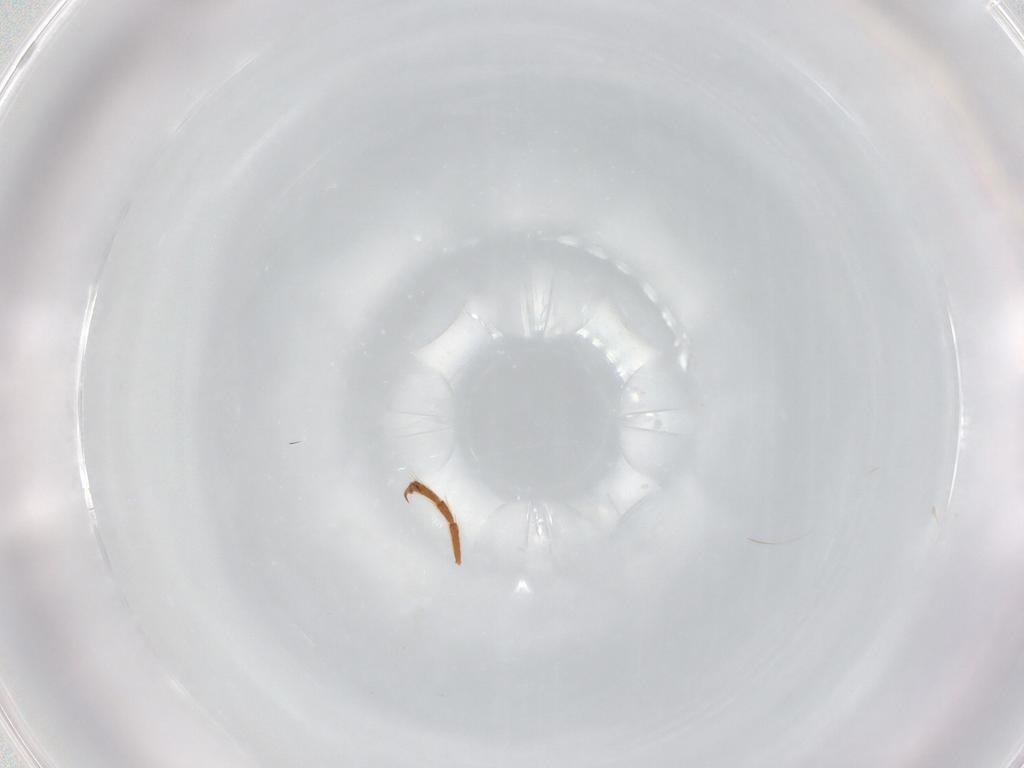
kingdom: Animalia
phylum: Arthropoda
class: Insecta
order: Diptera
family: Psychodidae
